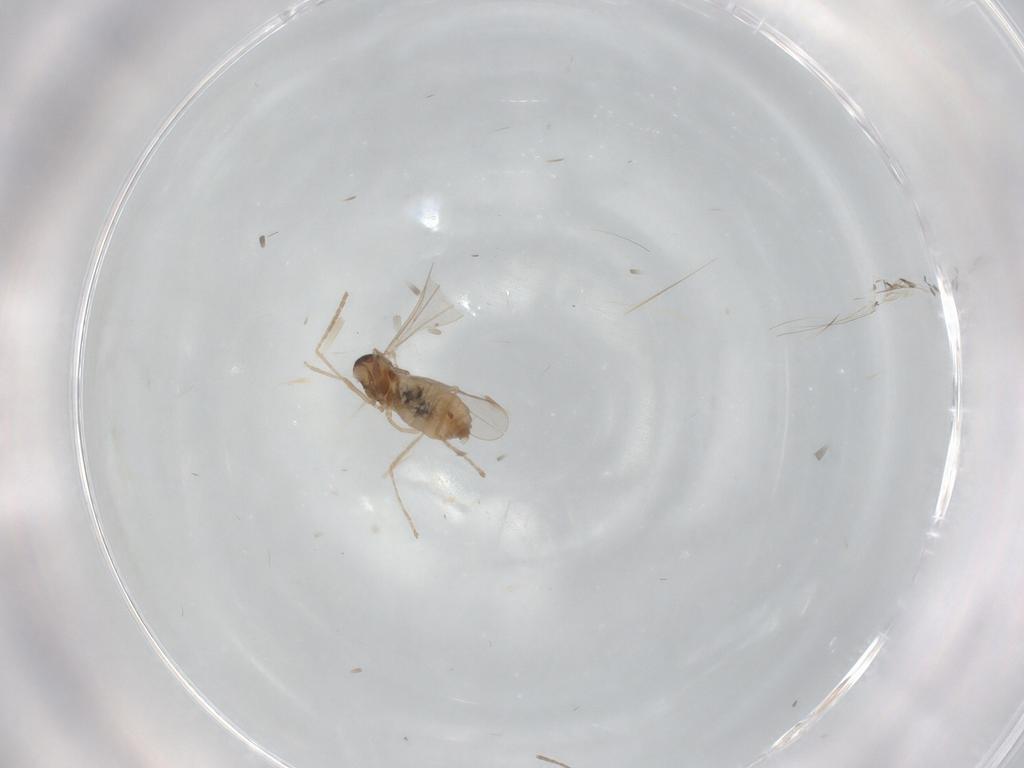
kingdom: Animalia
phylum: Arthropoda
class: Insecta
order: Diptera
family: Cecidomyiidae
